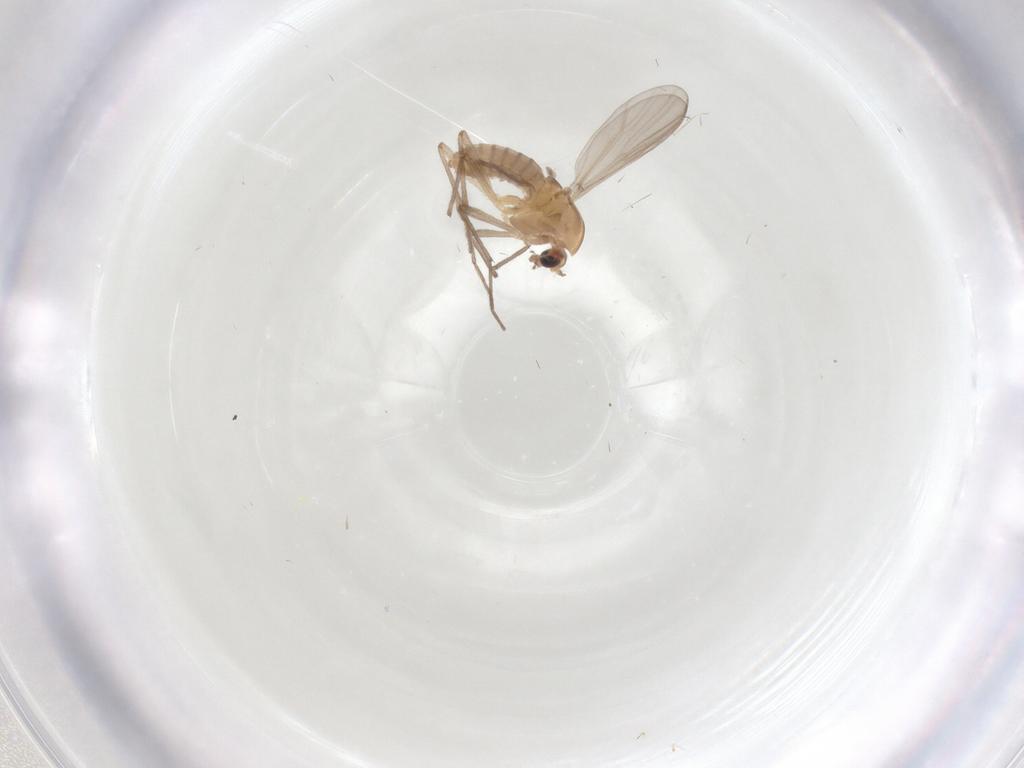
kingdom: Animalia
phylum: Arthropoda
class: Insecta
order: Diptera
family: Chironomidae
